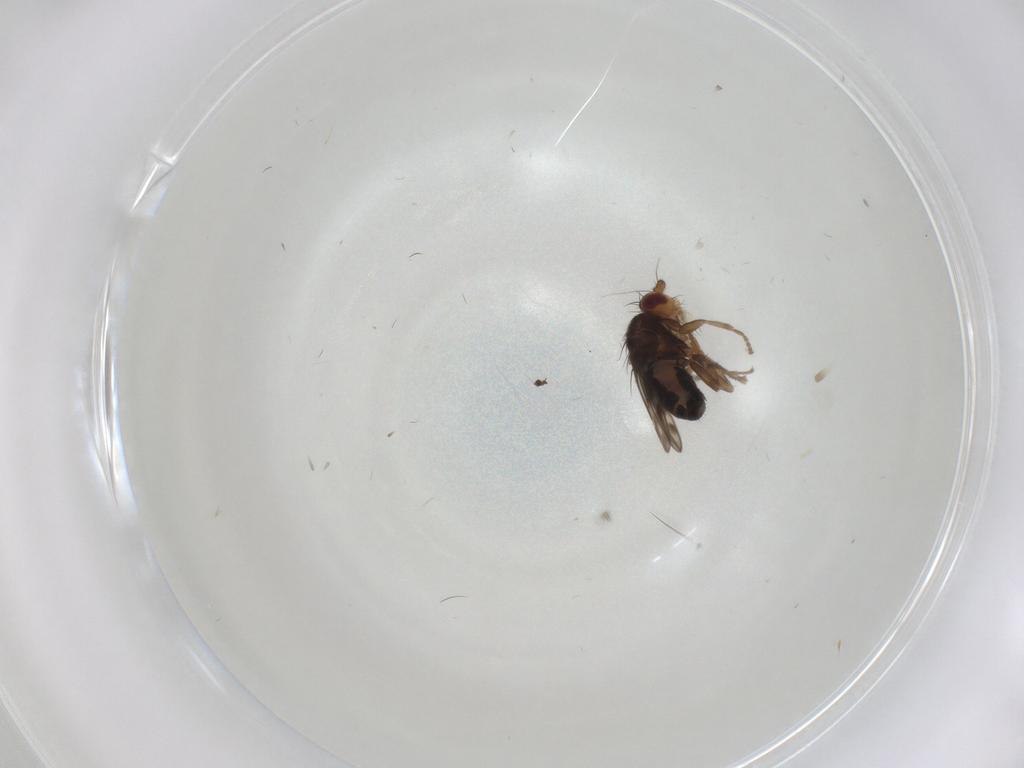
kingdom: Animalia
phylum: Arthropoda
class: Insecta
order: Diptera
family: Sphaeroceridae
